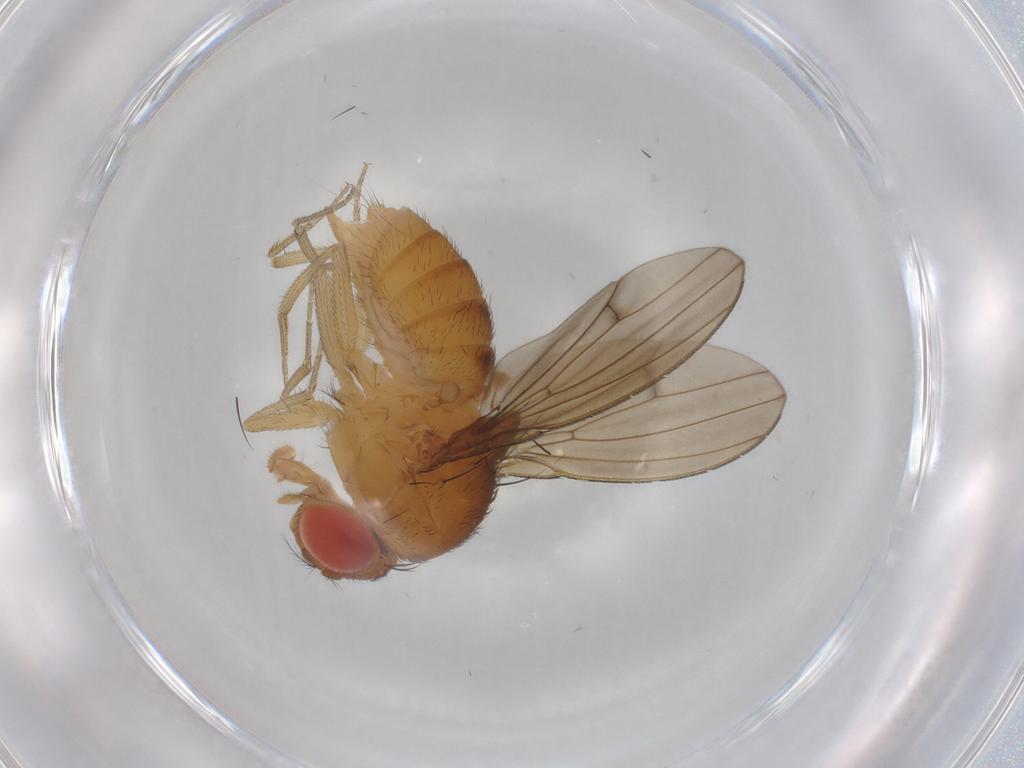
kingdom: Animalia
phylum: Arthropoda
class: Insecta
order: Diptera
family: Drosophilidae
